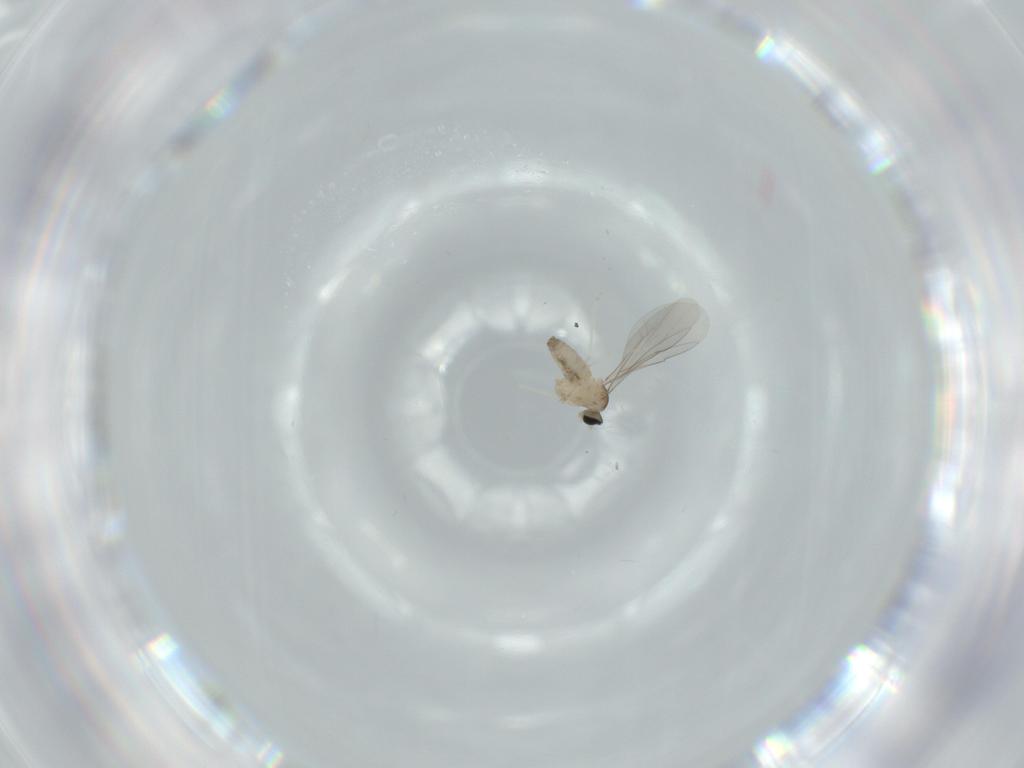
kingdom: Animalia
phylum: Arthropoda
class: Insecta
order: Diptera
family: Cecidomyiidae
